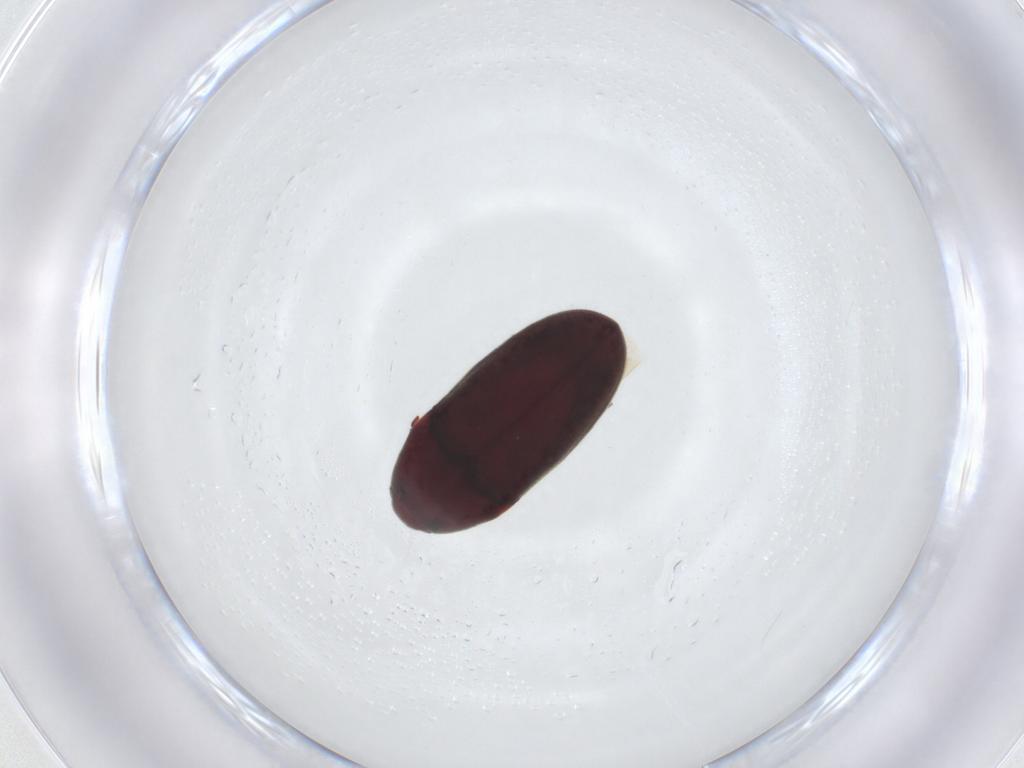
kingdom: Animalia
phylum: Arthropoda
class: Insecta
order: Coleoptera
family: Throscidae
